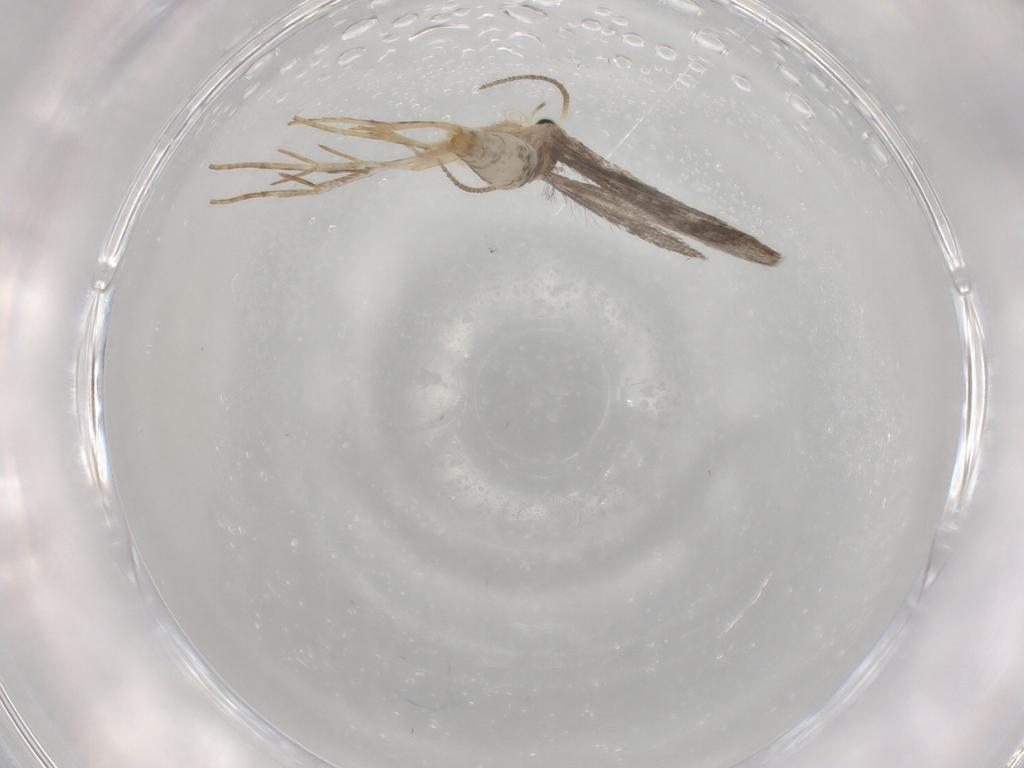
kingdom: Animalia
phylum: Arthropoda
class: Insecta
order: Lepidoptera
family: Schreckensteiniidae
